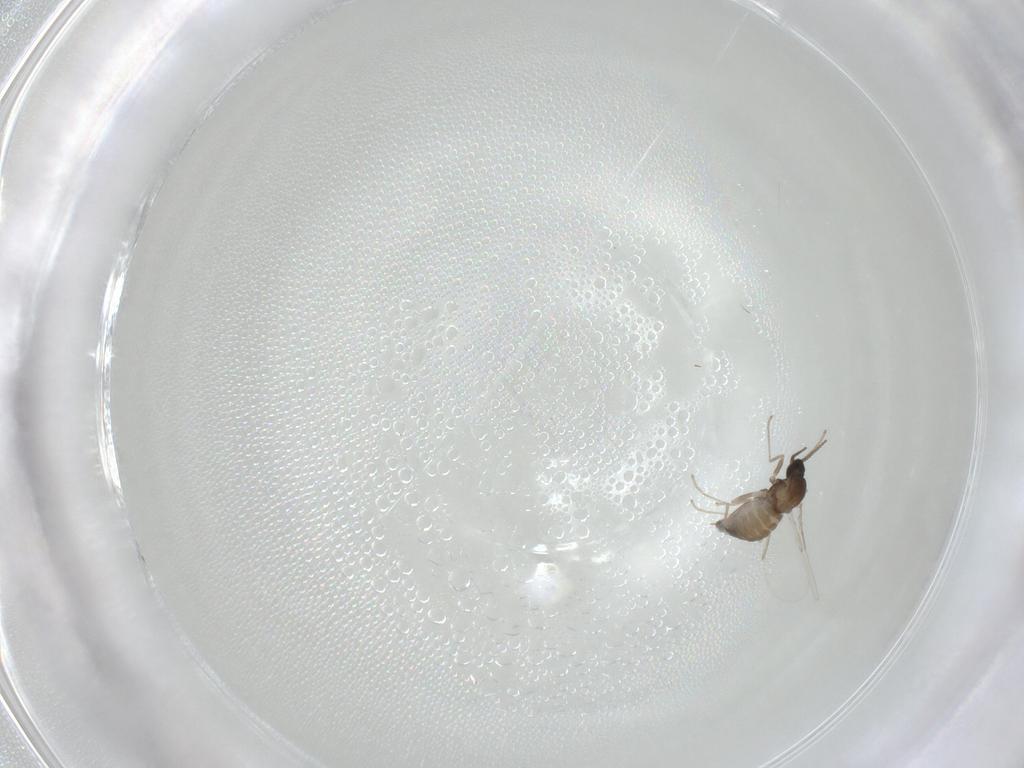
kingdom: Animalia
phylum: Arthropoda
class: Insecta
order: Diptera
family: Cecidomyiidae
